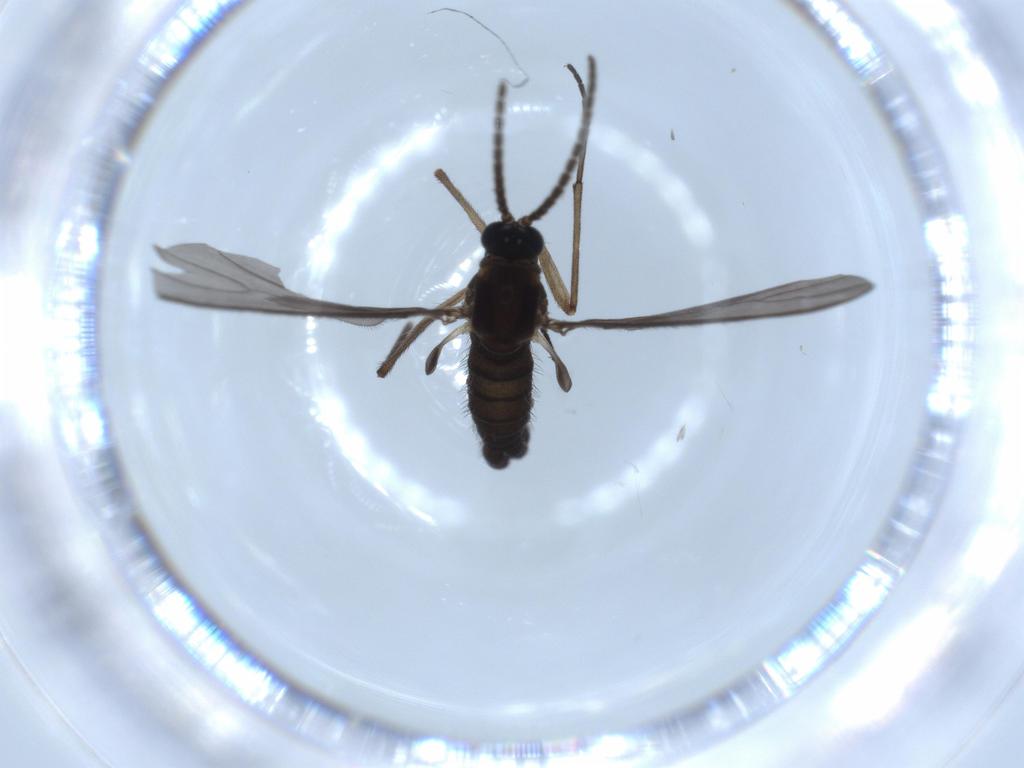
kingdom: Animalia
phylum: Arthropoda
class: Insecta
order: Diptera
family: Sciaridae
